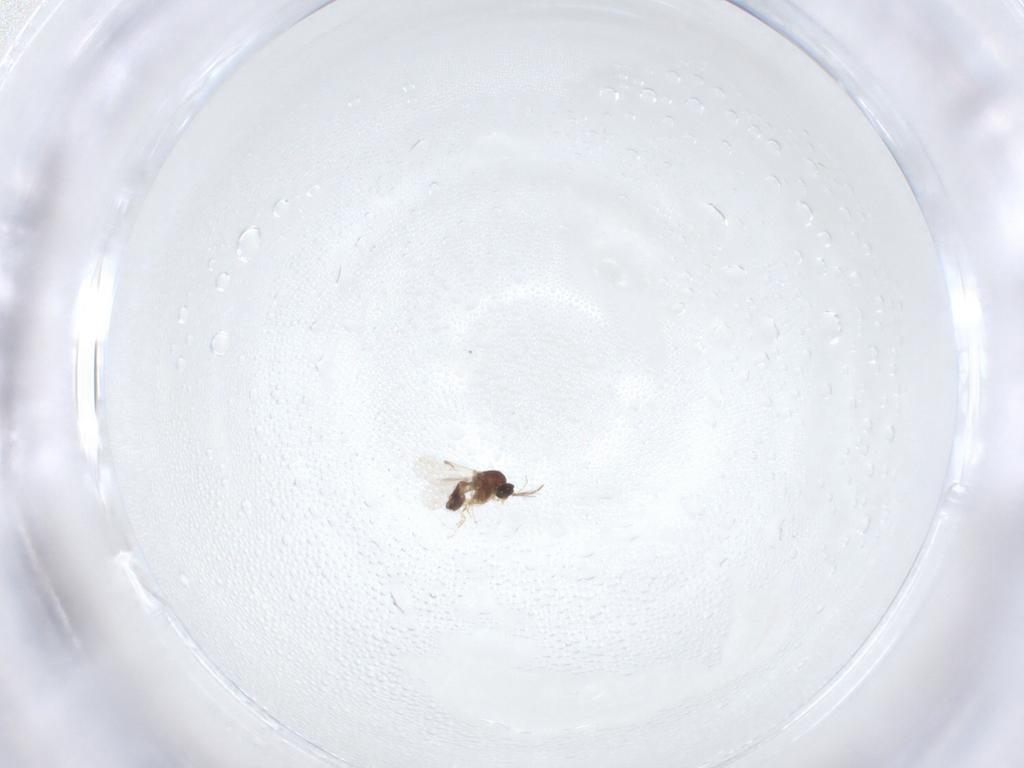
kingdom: Animalia
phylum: Arthropoda
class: Insecta
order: Diptera
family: Ceratopogonidae
